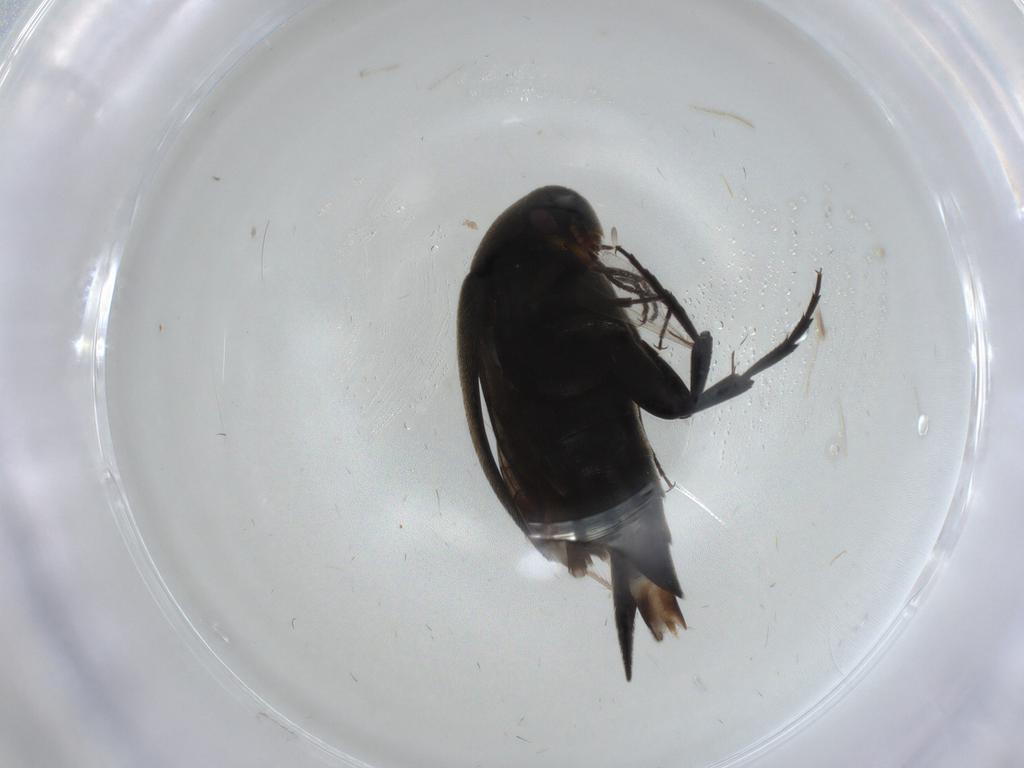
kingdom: Animalia
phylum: Arthropoda
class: Insecta
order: Coleoptera
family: Mordellidae
